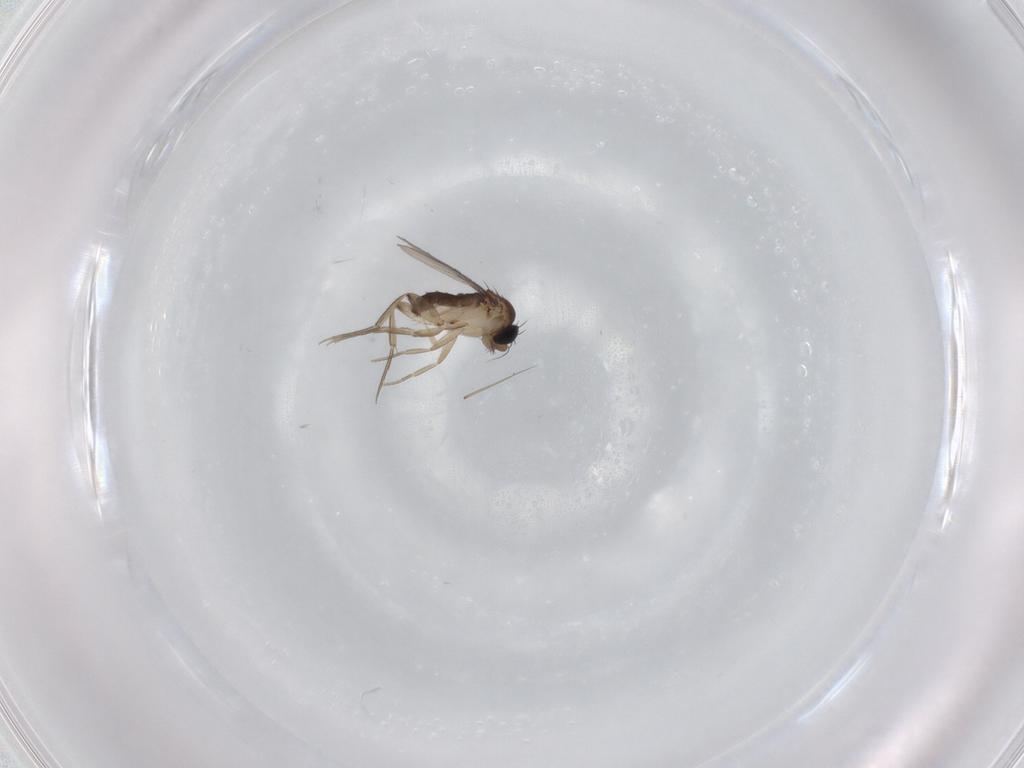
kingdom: Animalia
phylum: Arthropoda
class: Insecta
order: Diptera
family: Phoridae
